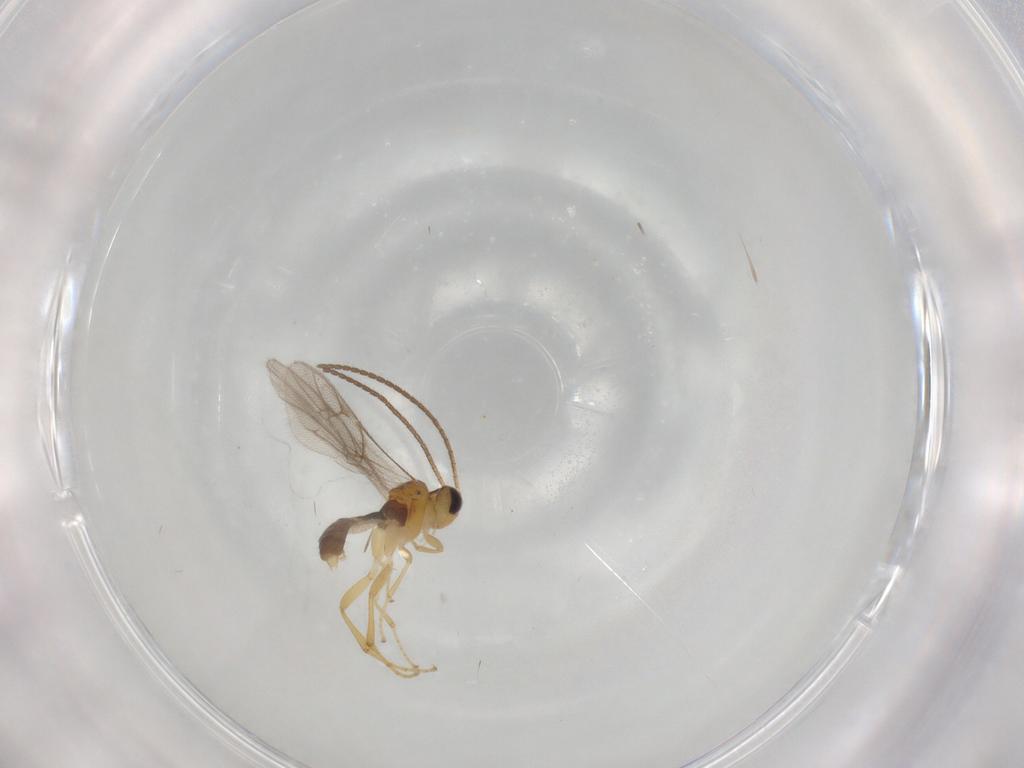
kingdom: Animalia
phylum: Arthropoda
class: Insecta
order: Hymenoptera
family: Ichneumonidae
